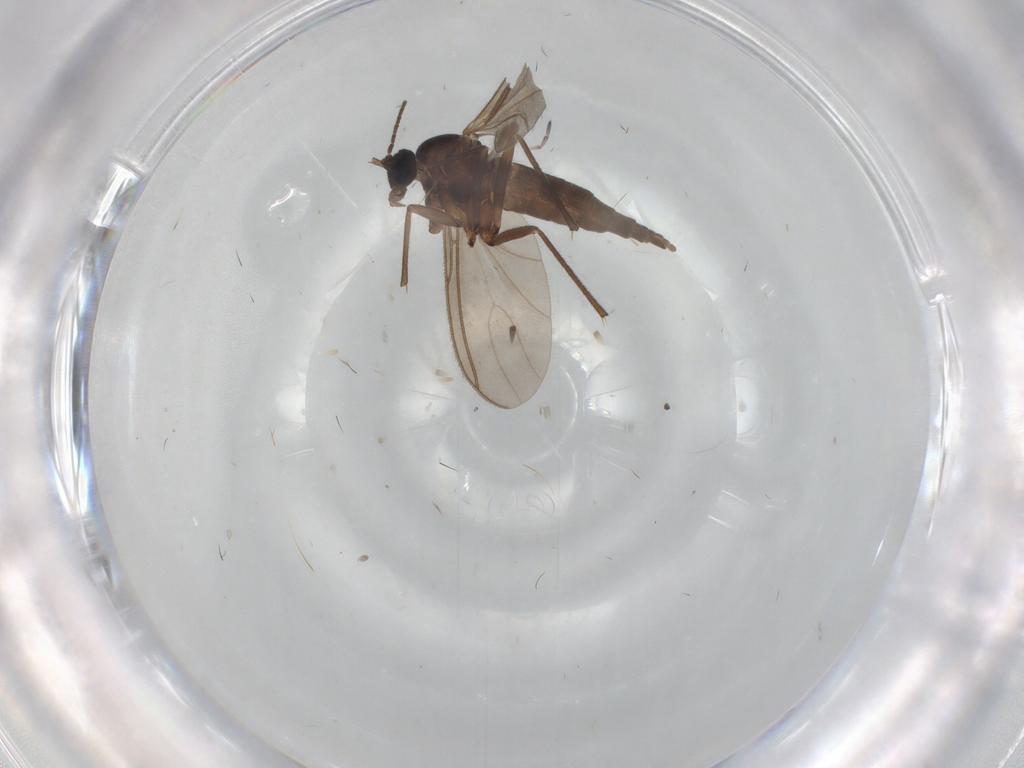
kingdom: Animalia
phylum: Arthropoda
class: Insecta
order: Diptera
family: Sciaridae
